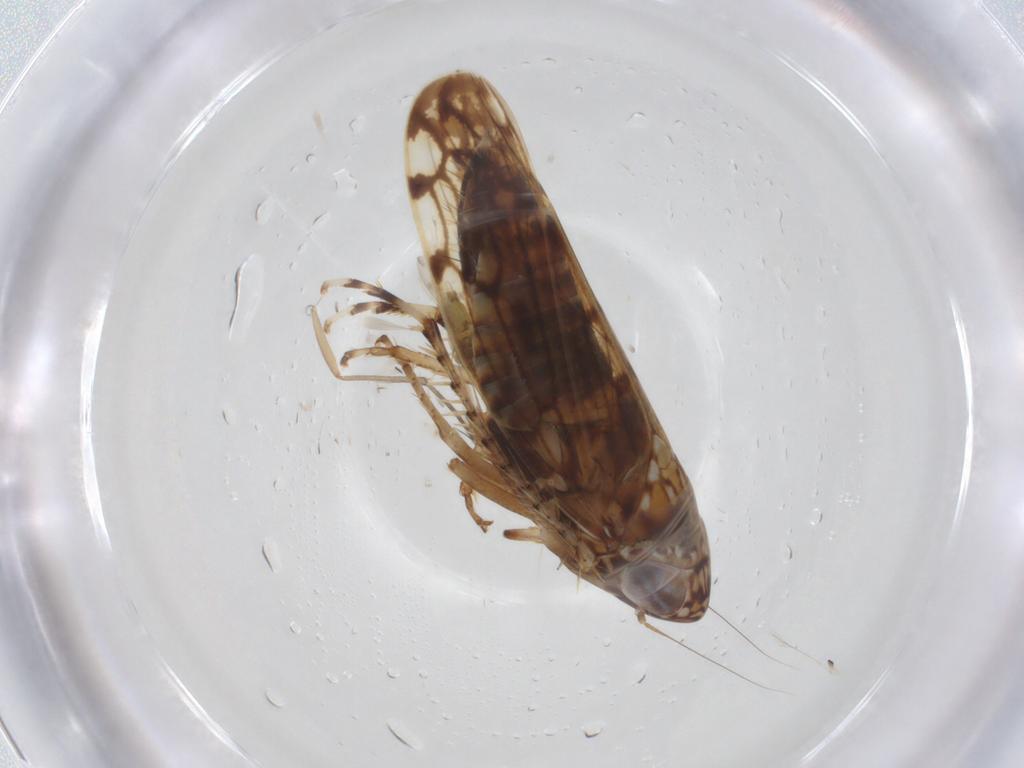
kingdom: Animalia
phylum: Arthropoda
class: Insecta
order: Hemiptera
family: Cicadellidae
